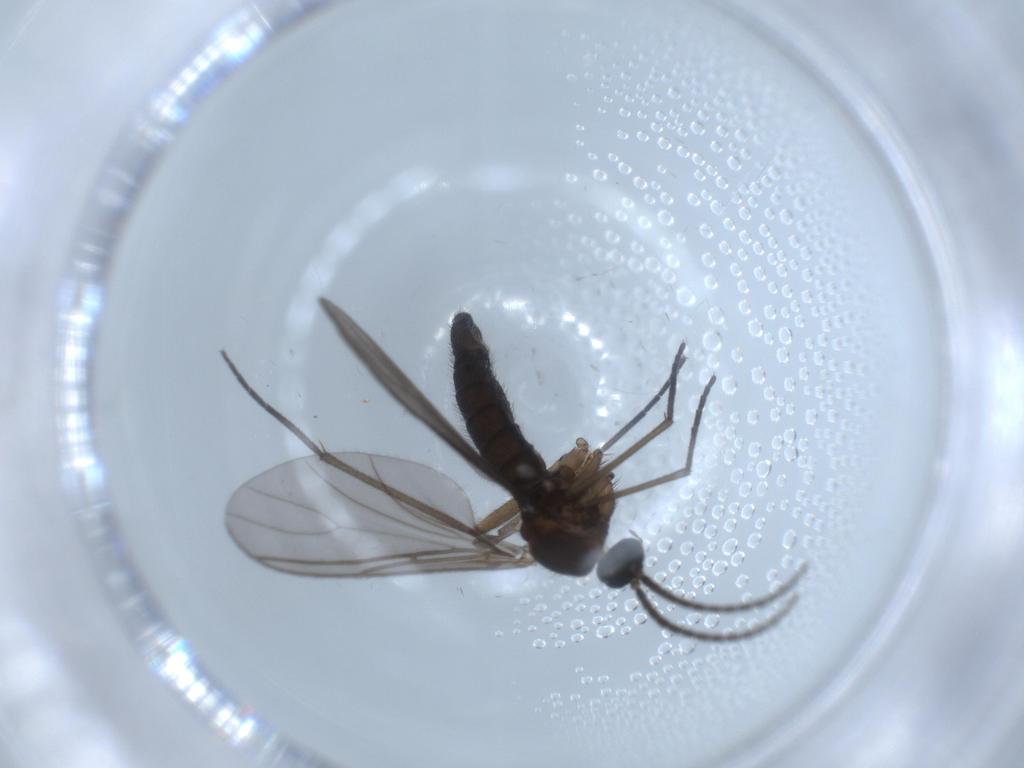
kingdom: Animalia
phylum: Arthropoda
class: Insecta
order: Diptera
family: Sciaridae
